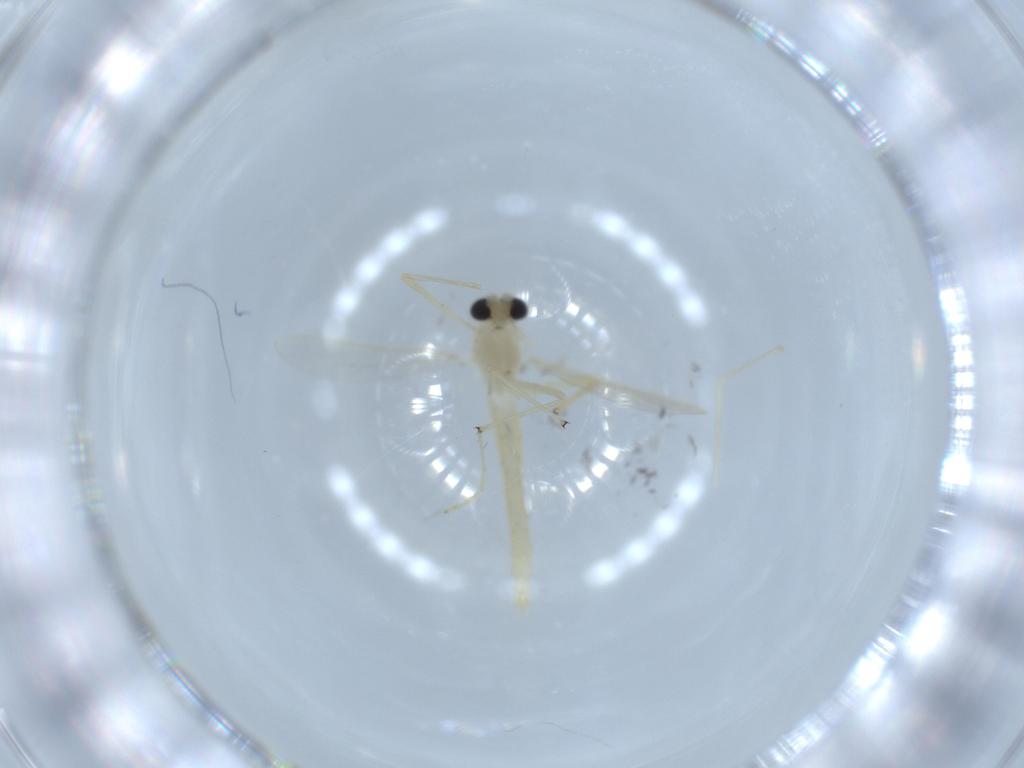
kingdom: Animalia
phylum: Arthropoda
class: Insecta
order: Diptera
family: Chironomidae
